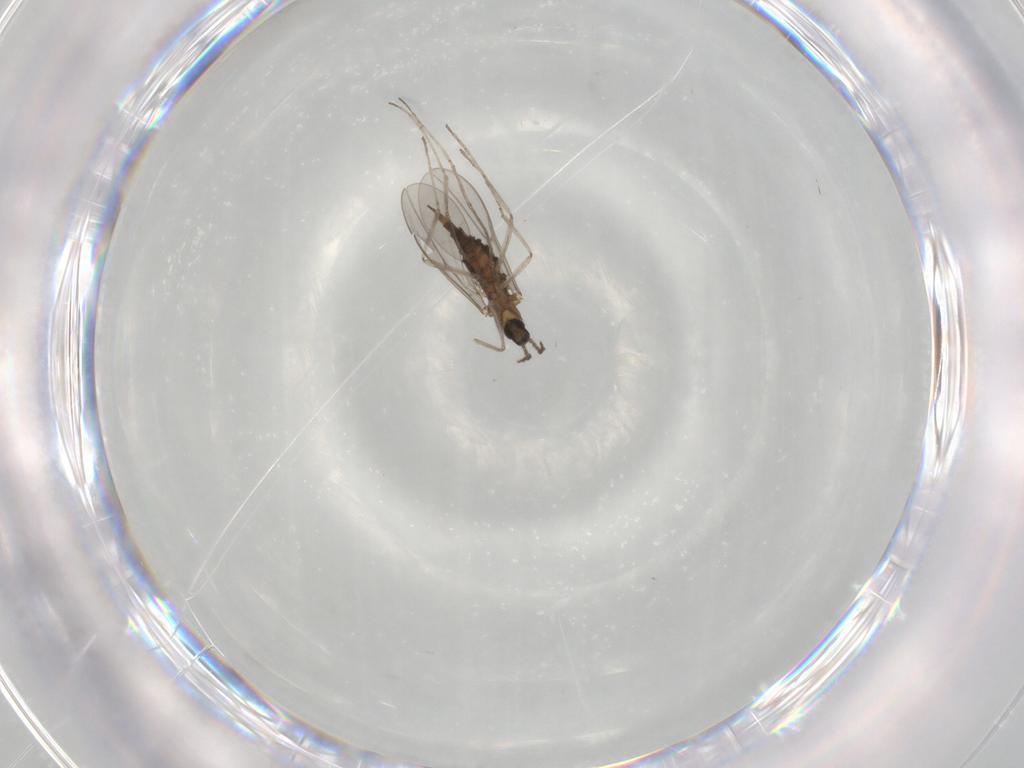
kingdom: Animalia
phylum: Arthropoda
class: Insecta
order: Diptera
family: Cecidomyiidae
